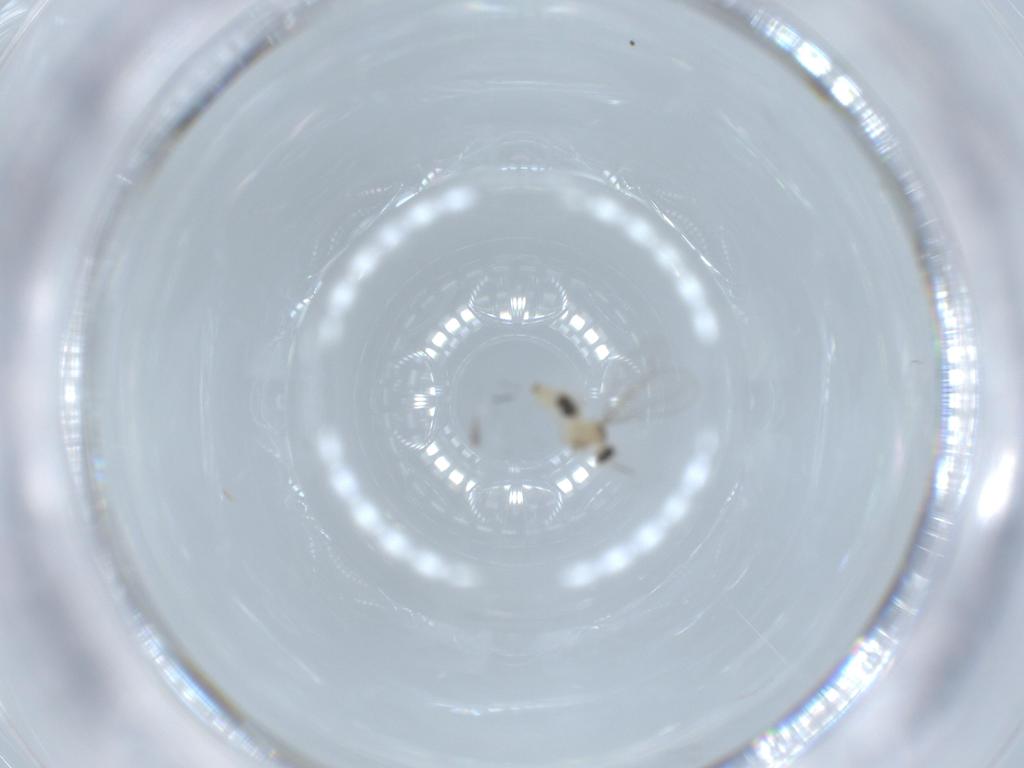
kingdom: Animalia
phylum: Arthropoda
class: Insecta
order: Diptera
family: Cecidomyiidae
